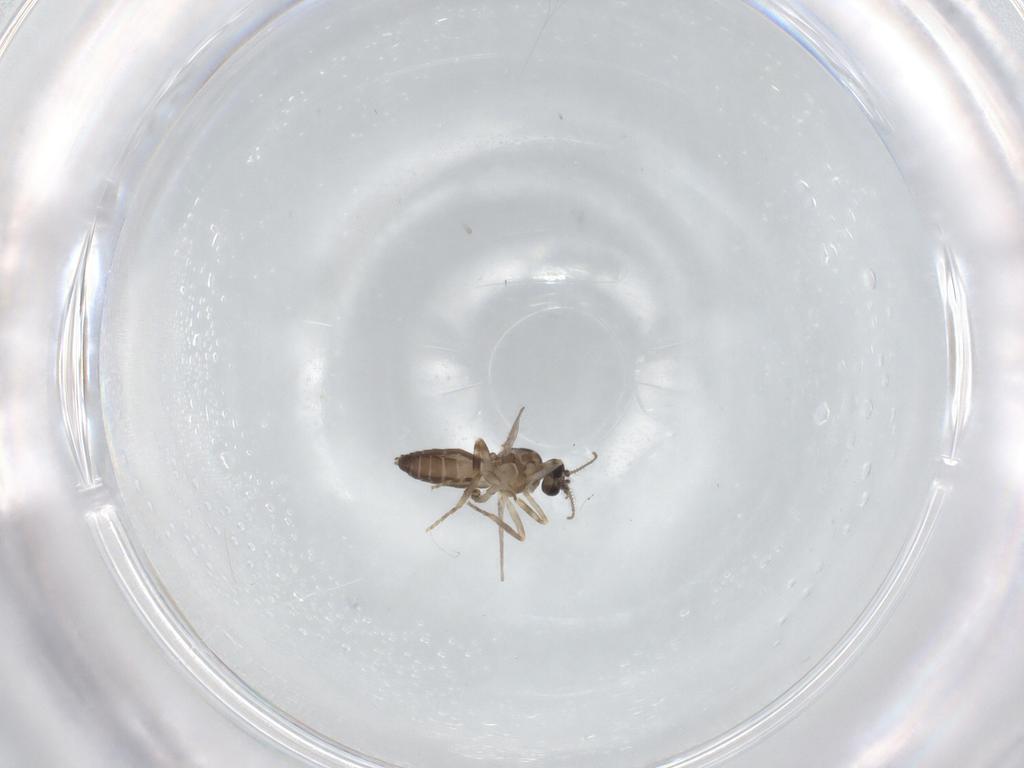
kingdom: Animalia
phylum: Arthropoda
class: Insecta
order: Diptera
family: Ceratopogonidae
